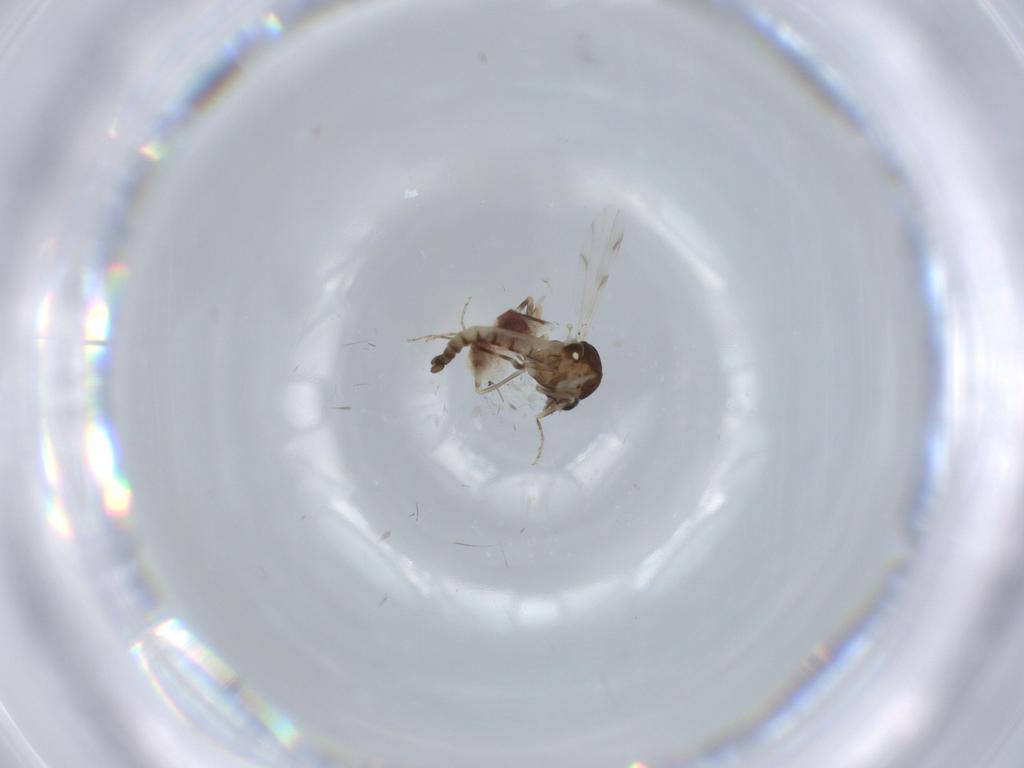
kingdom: Animalia
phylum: Arthropoda
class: Insecta
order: Diptera
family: Ceratopogonidae
